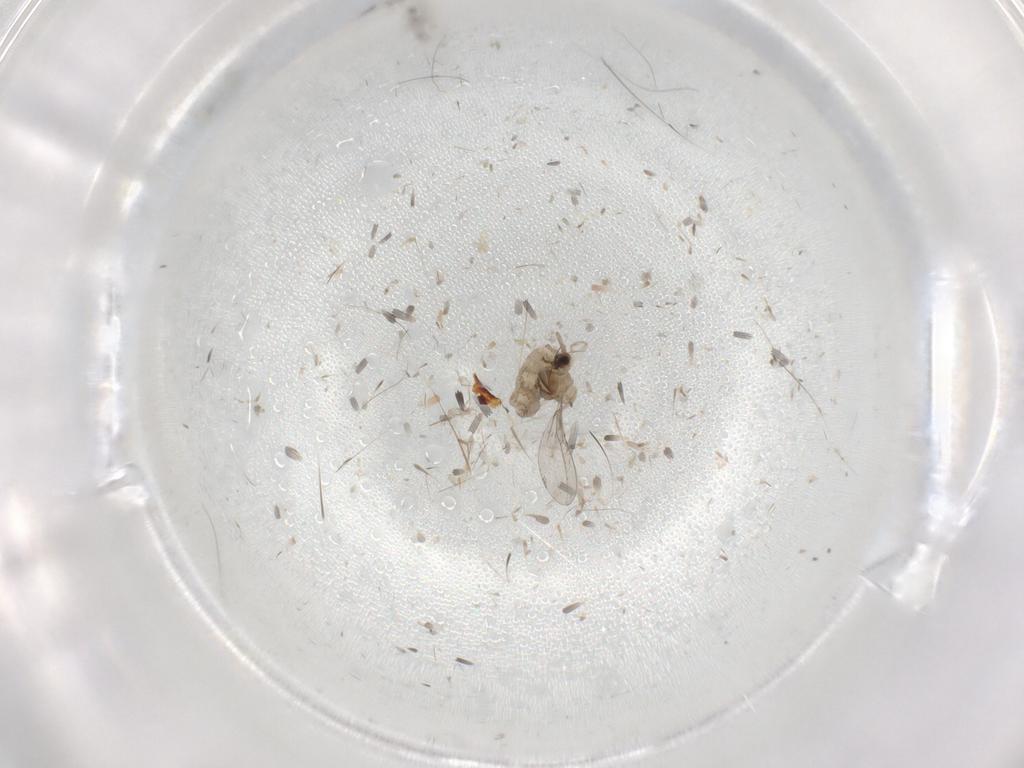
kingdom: Animalia
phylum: Arthropoda
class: Insecta
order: Diptera
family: Cecidomyiidae
